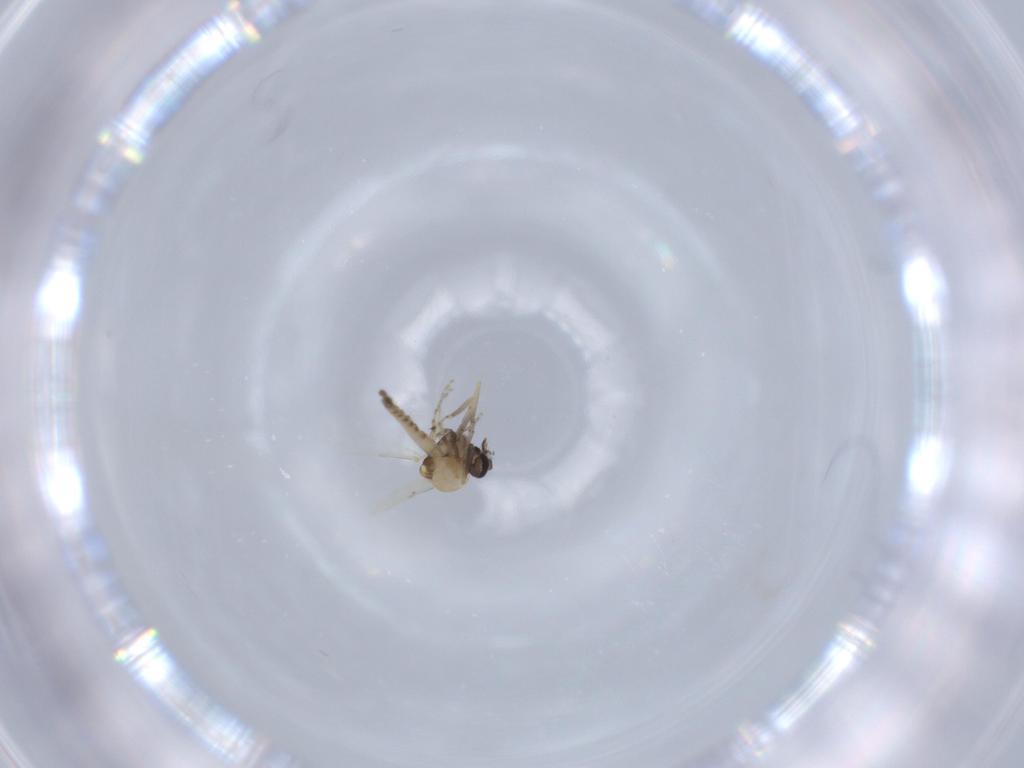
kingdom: Animalia
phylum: Arthropoda
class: Insecta
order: Diptera
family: Ceratopogonidae
